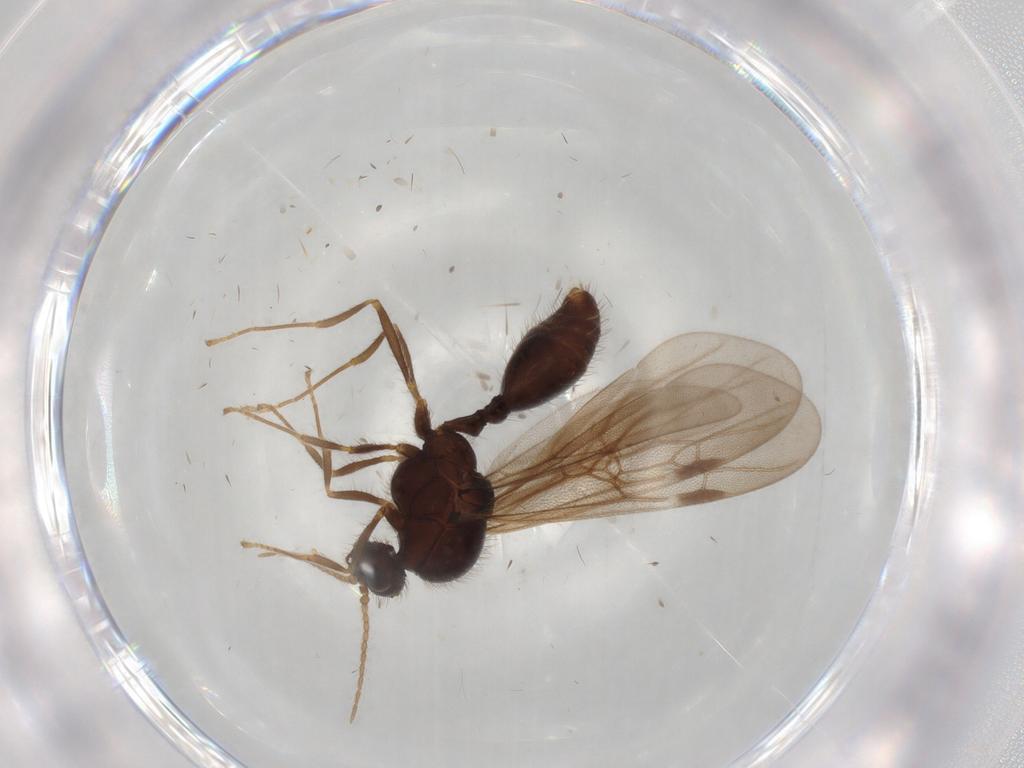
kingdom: Animalia
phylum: Arthropoda
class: Insecta
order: Hymenoptera
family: Formicidae
